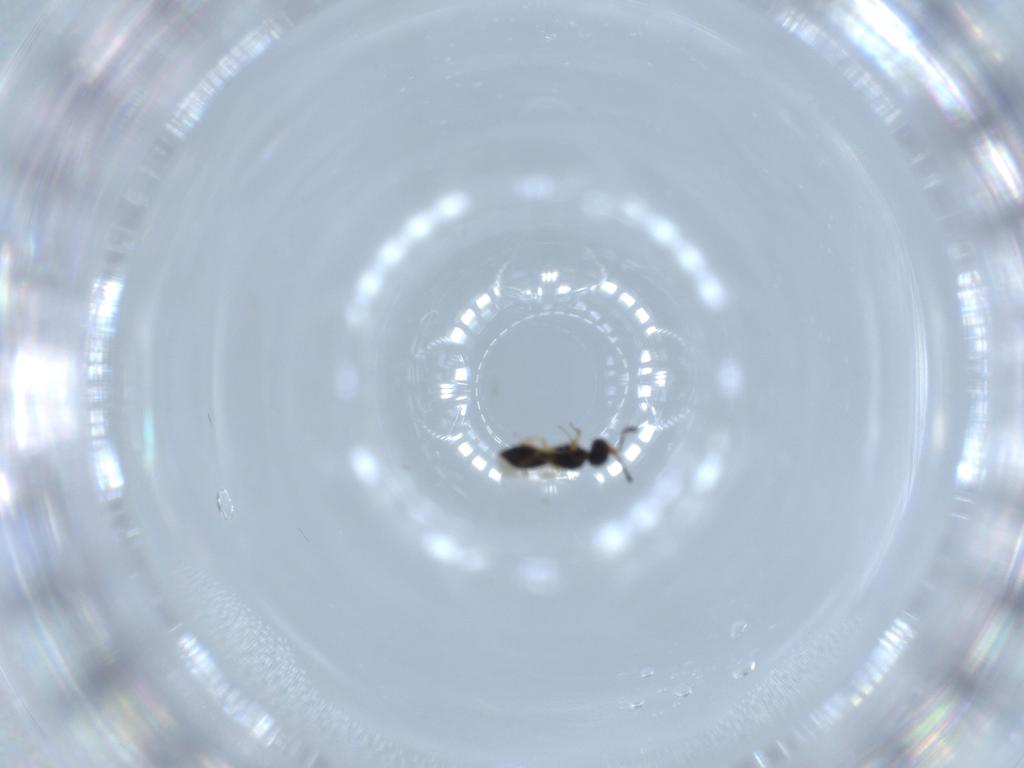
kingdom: Animalia
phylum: Arthropoda
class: Insecta
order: Hymenoptera
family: Scelionidae
